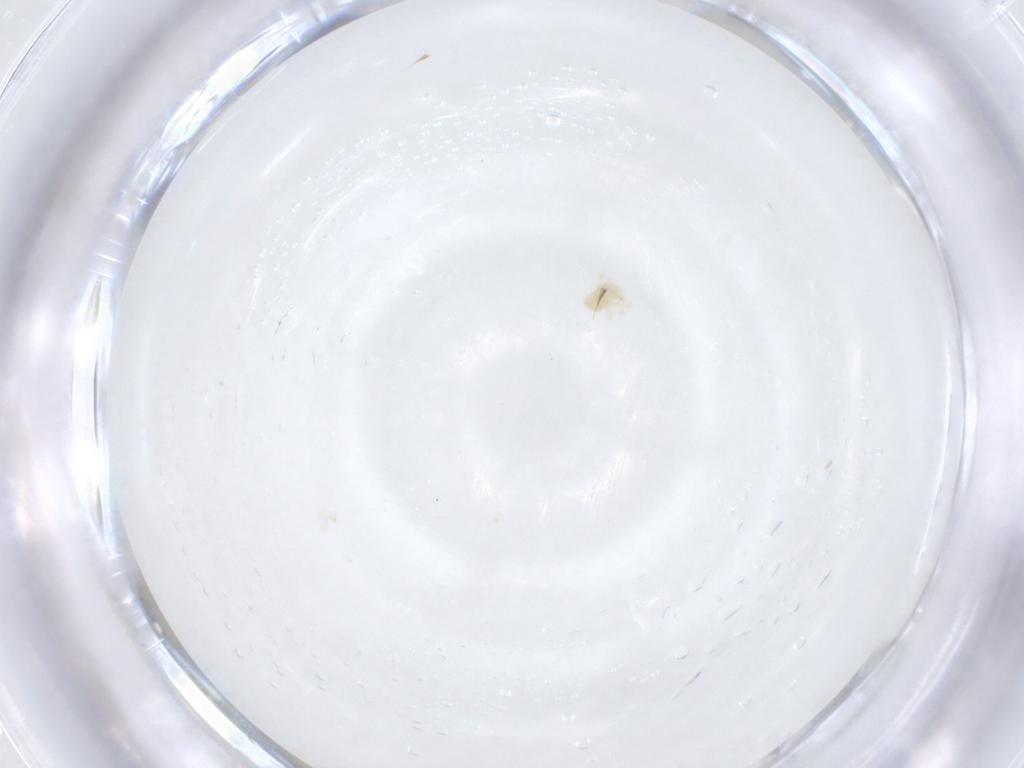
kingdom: Animalia
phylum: Arthropoda
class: Arachnida
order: Trombidiformes
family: Anystidae
